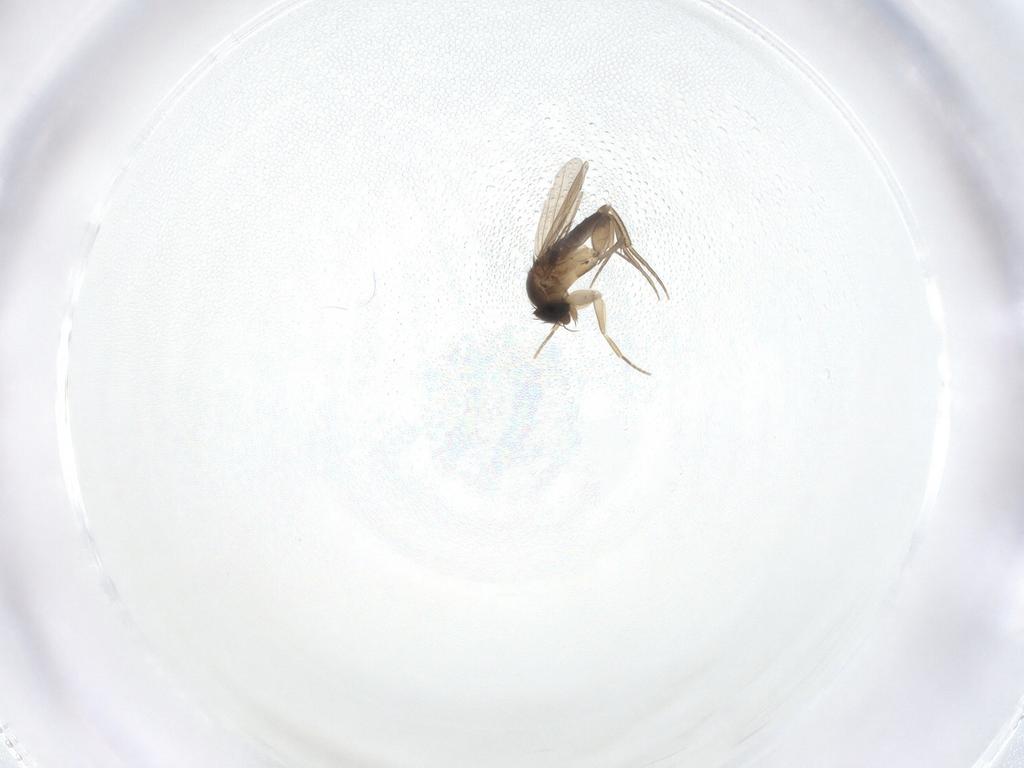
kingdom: Animalia
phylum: Arthropoda
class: Insecta
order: Diptera
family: Phoridae
